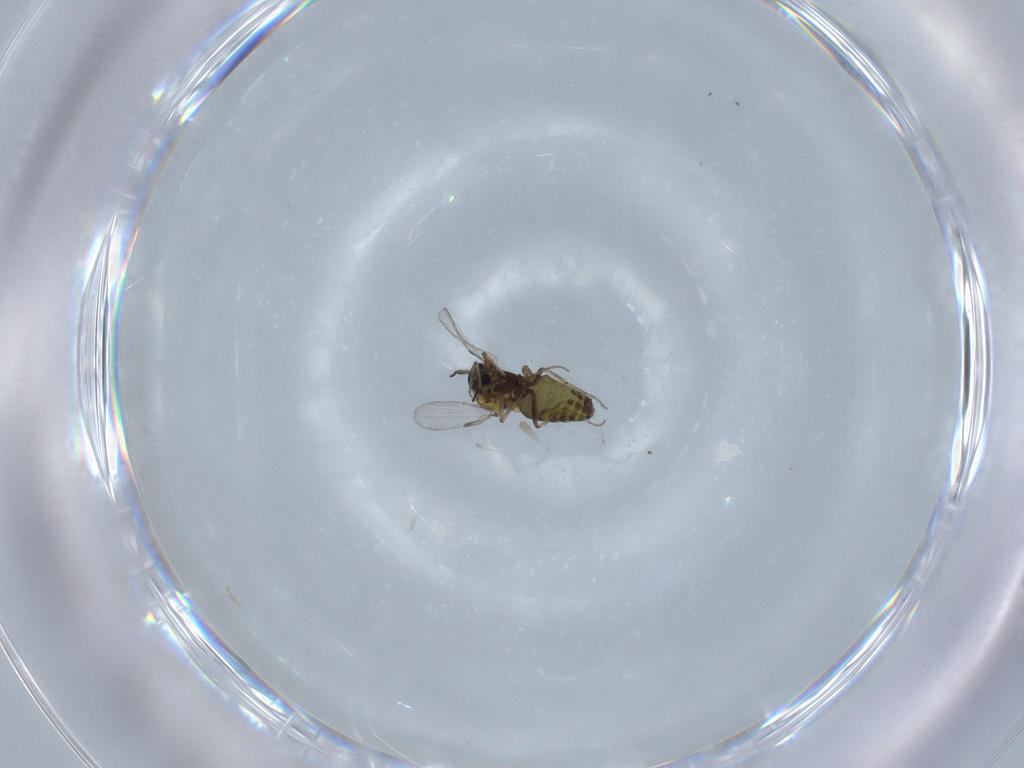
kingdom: Animalia
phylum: Arthropoda
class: Insecta
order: Diptera
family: Ceratopogonidae
